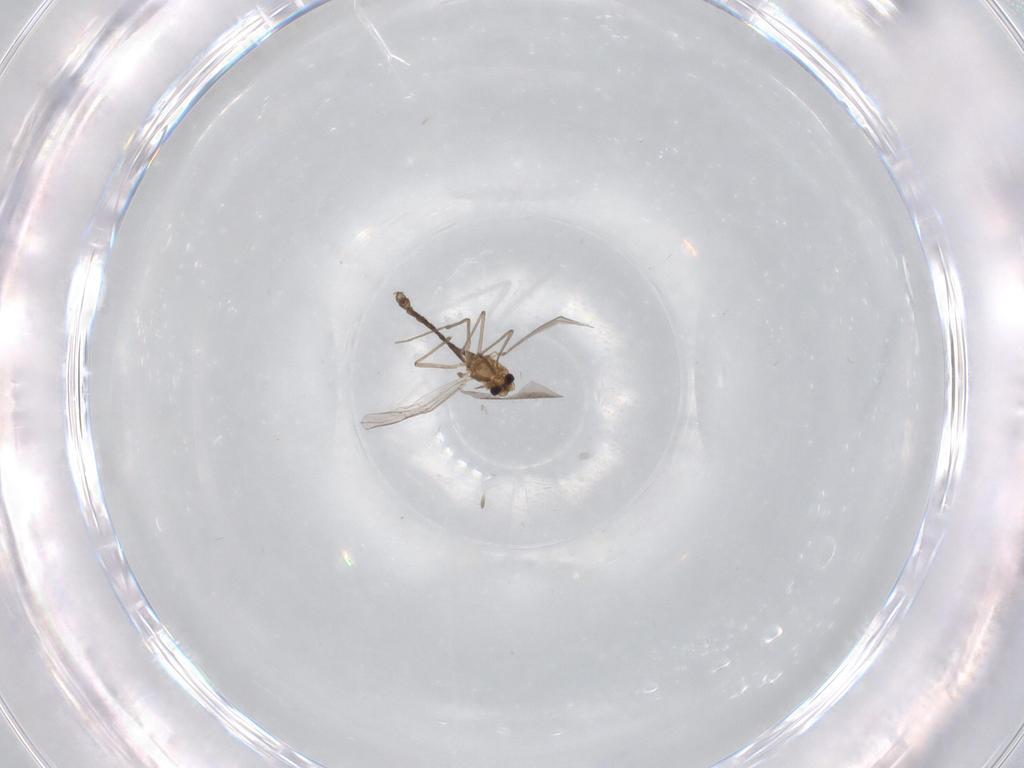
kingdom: Animalia
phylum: Arthropoda
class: Insecta
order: Diptera
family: Chironomidae
